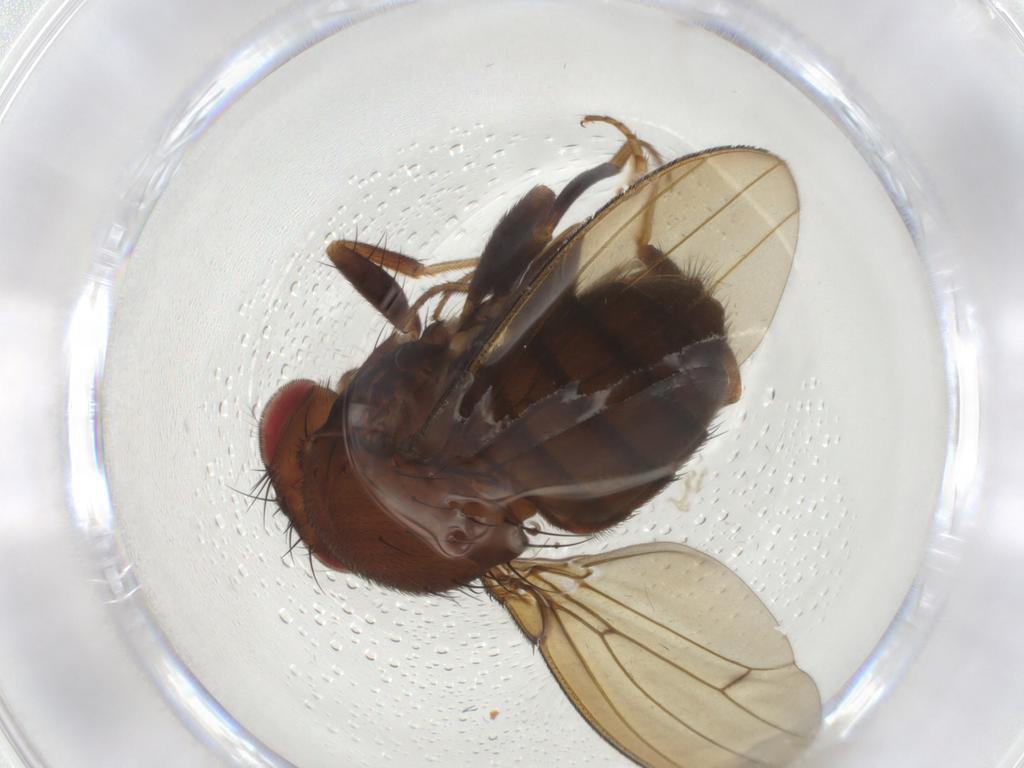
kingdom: Animalia
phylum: Arthropoda
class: Insecta
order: Diptera
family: Drosophilidae
